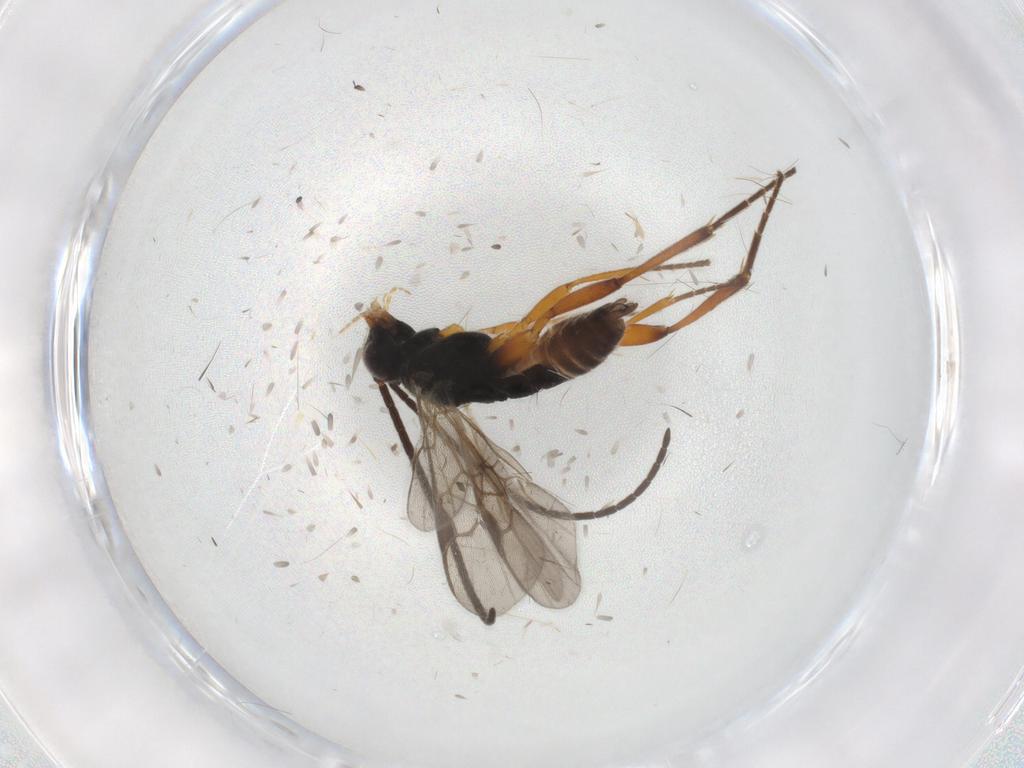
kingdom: Animalia
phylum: Arthropoda
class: Insecta
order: Hymenoptera
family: Braconidae
